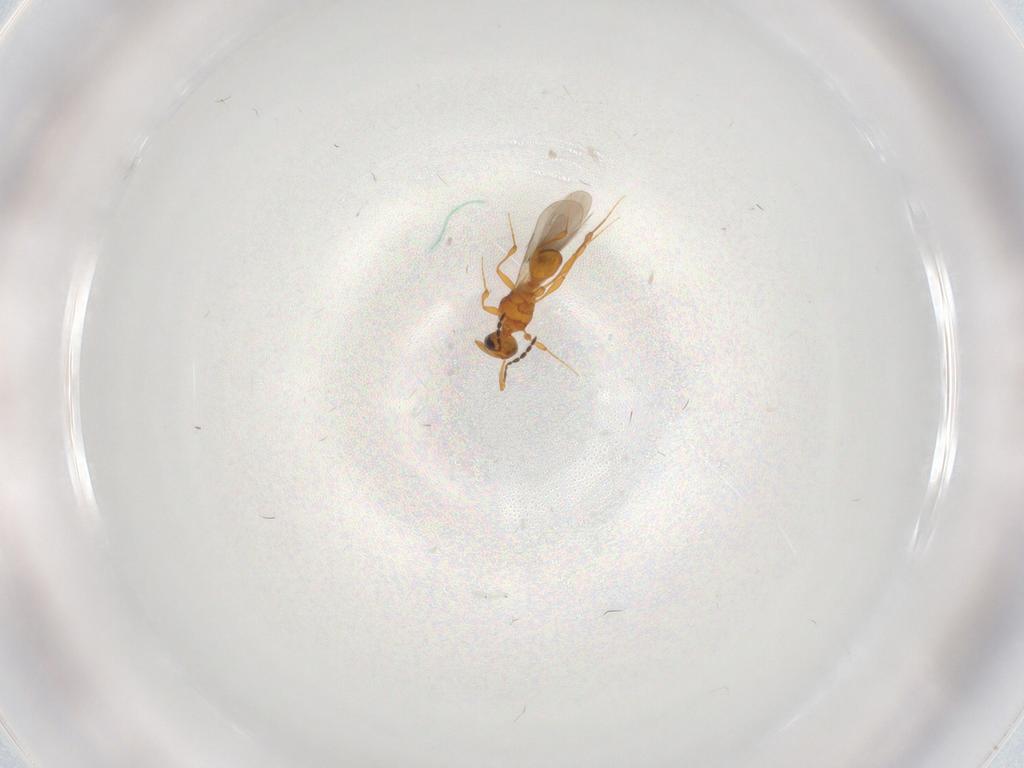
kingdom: Animalia
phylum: Arthropoda
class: Insecta
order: Hymenoptera
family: Platygastridae
